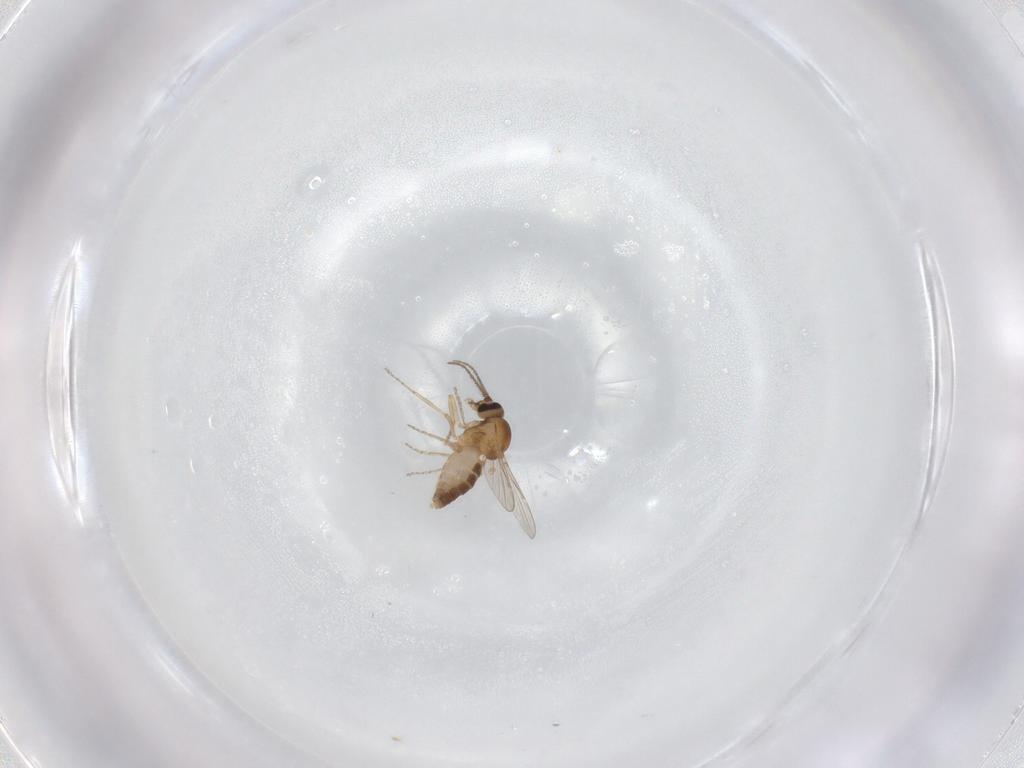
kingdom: Animalia
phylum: Arthropoda
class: Insecta
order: Diptera
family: Ceratopogonidae
